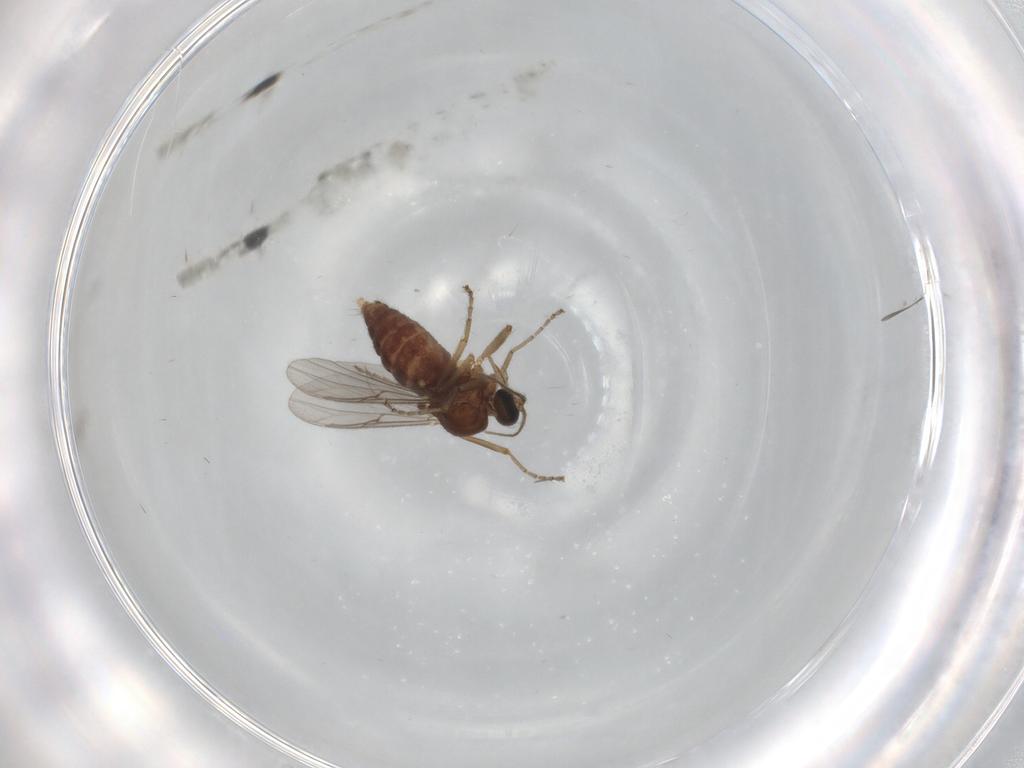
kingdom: Animalia
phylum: Arthropoda
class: Insecta
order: Diptera
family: Ceratopogonidae
